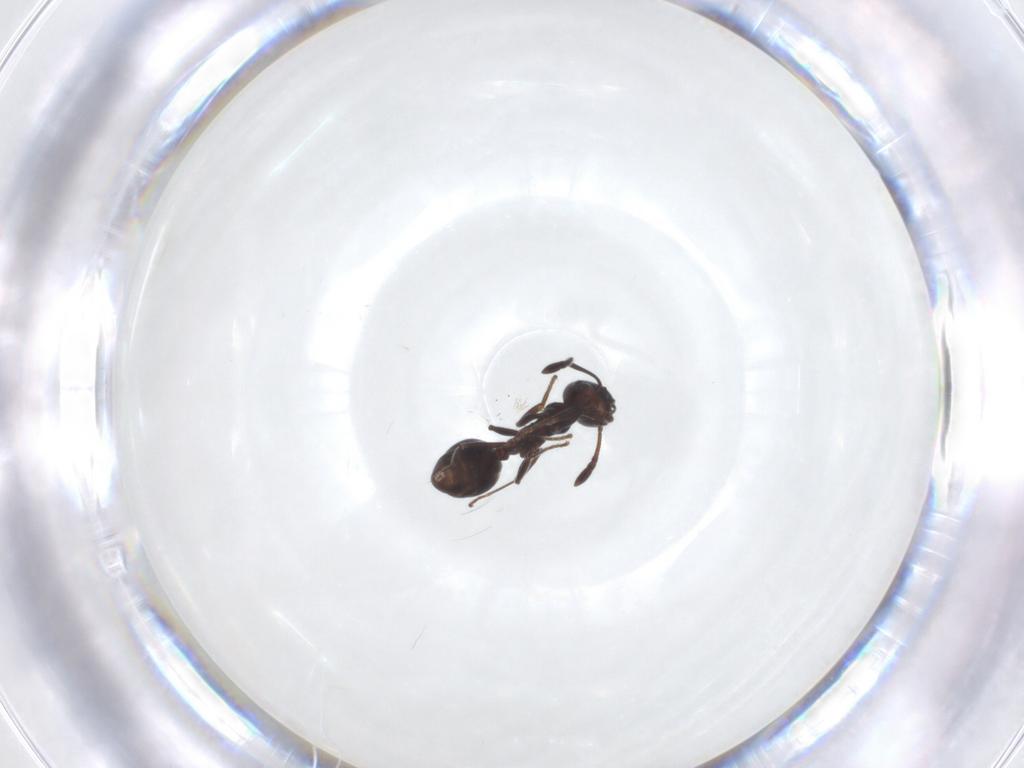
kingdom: Animalia
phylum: Arthropoda
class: Insecta
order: Hymenoptera
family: Formicidae
